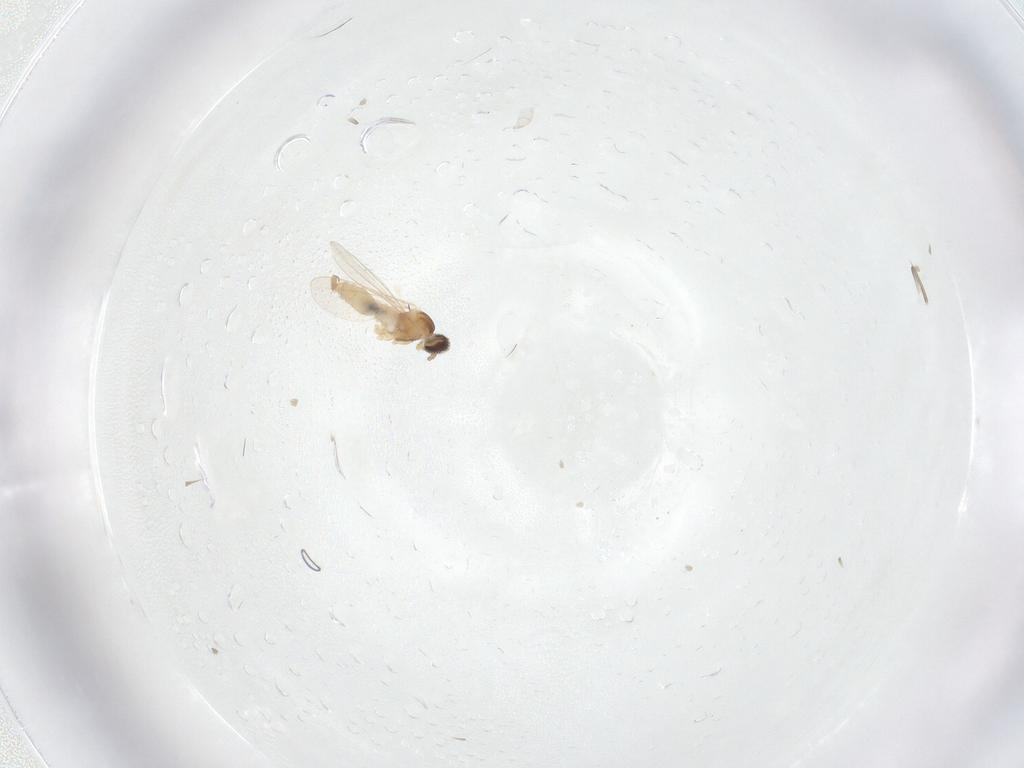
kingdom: Animalia
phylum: Arthropoda
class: Insecta
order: Diptera
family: Cecidomyiidae
